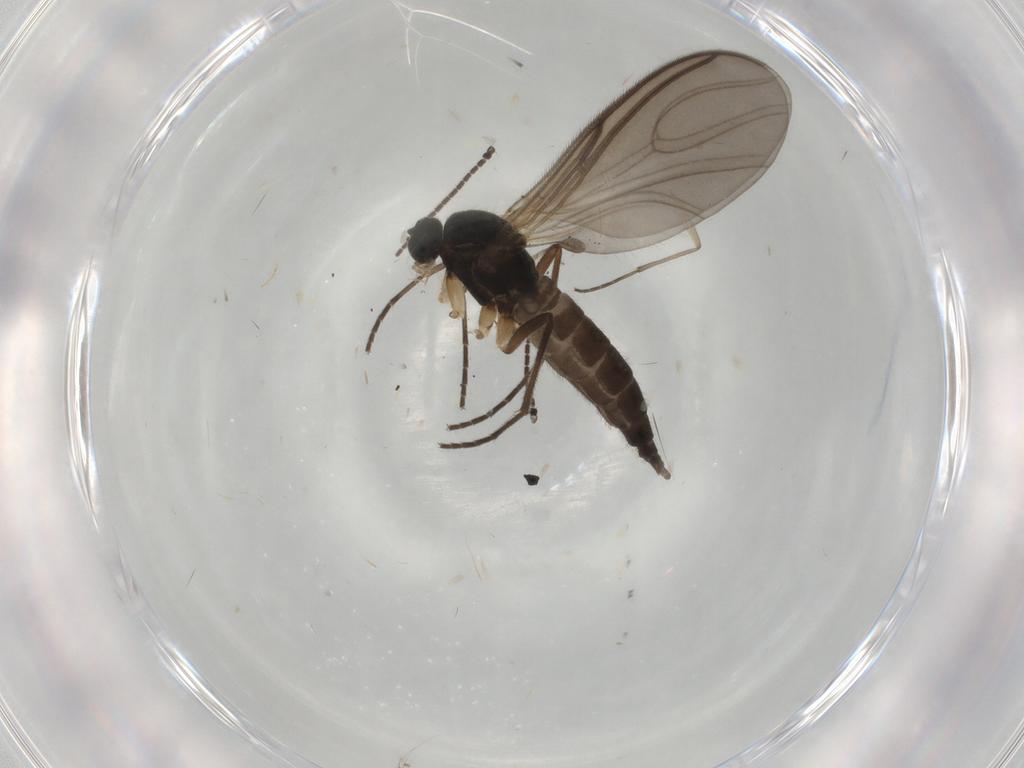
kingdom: Animalia
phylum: Arthropoda
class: Insecta
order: Diptera
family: Sciaridae
